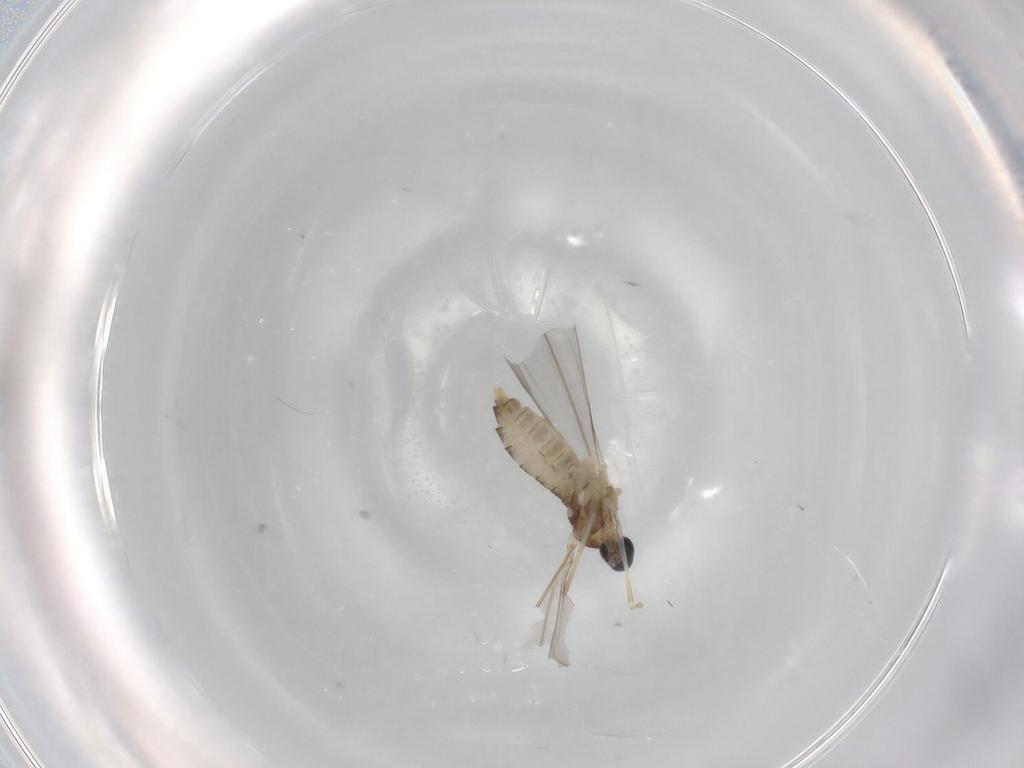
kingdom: Animalia
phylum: Arthropoda
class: Insecta
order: Diptera
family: Cecidomyiidae
